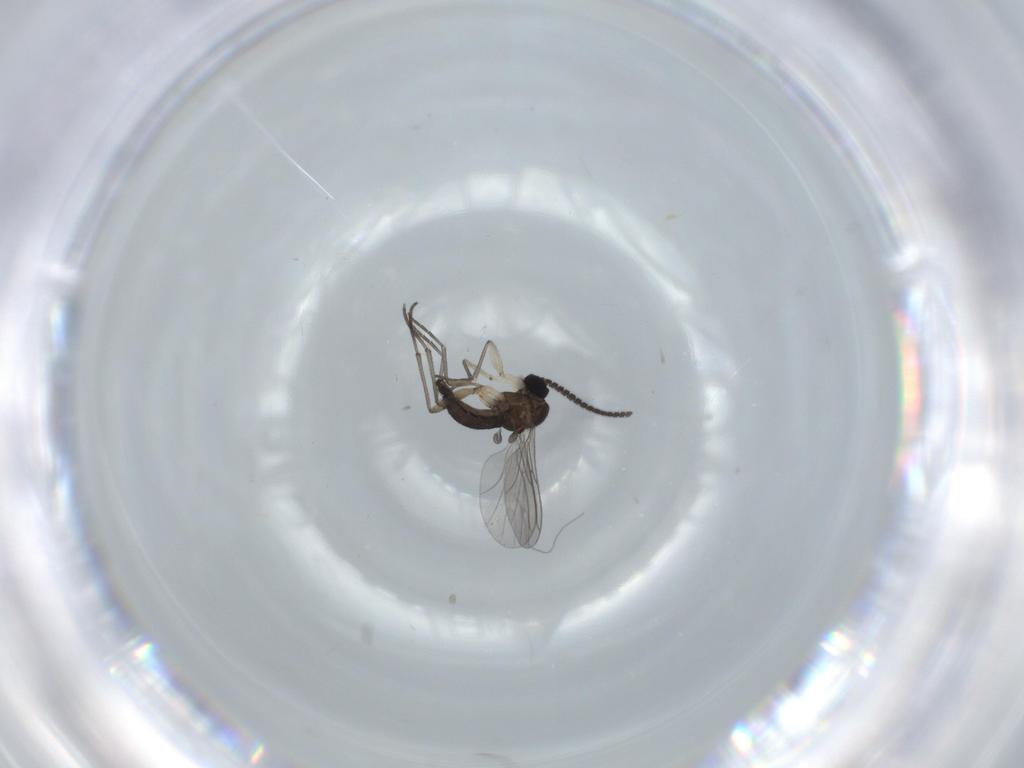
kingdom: Animalia
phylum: Arthropoda
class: Insecta
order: Diptera
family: Sciaridae
